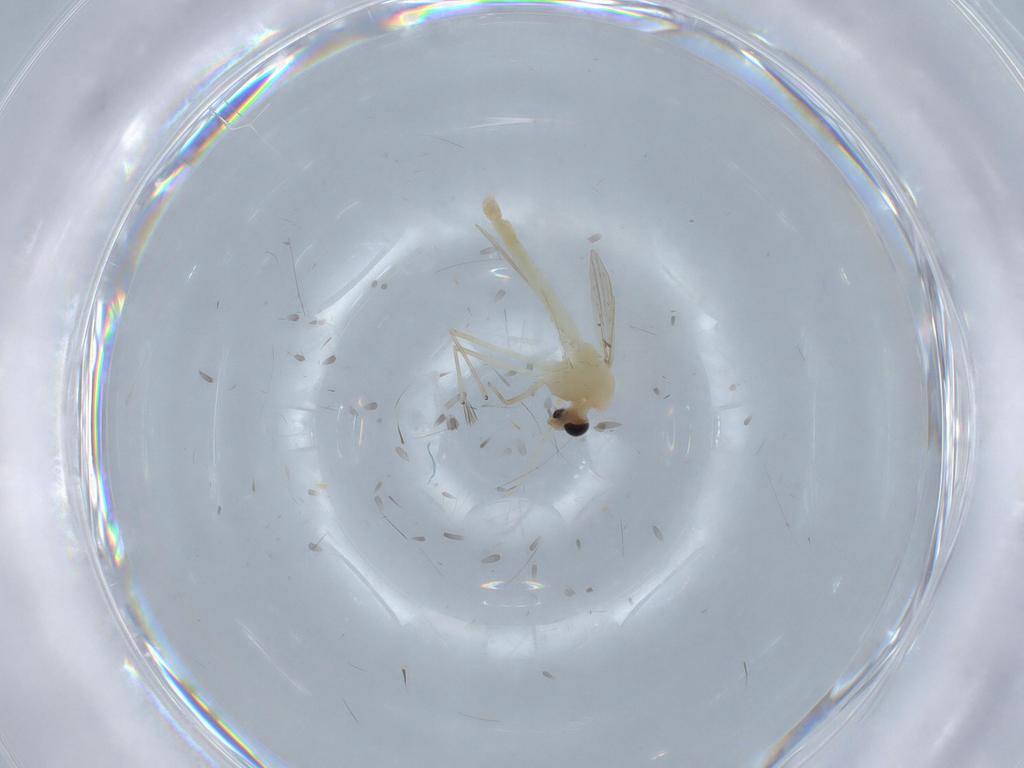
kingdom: Animalia
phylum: Arthropoda
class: Insecta
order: Diptera
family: Chironomidae
